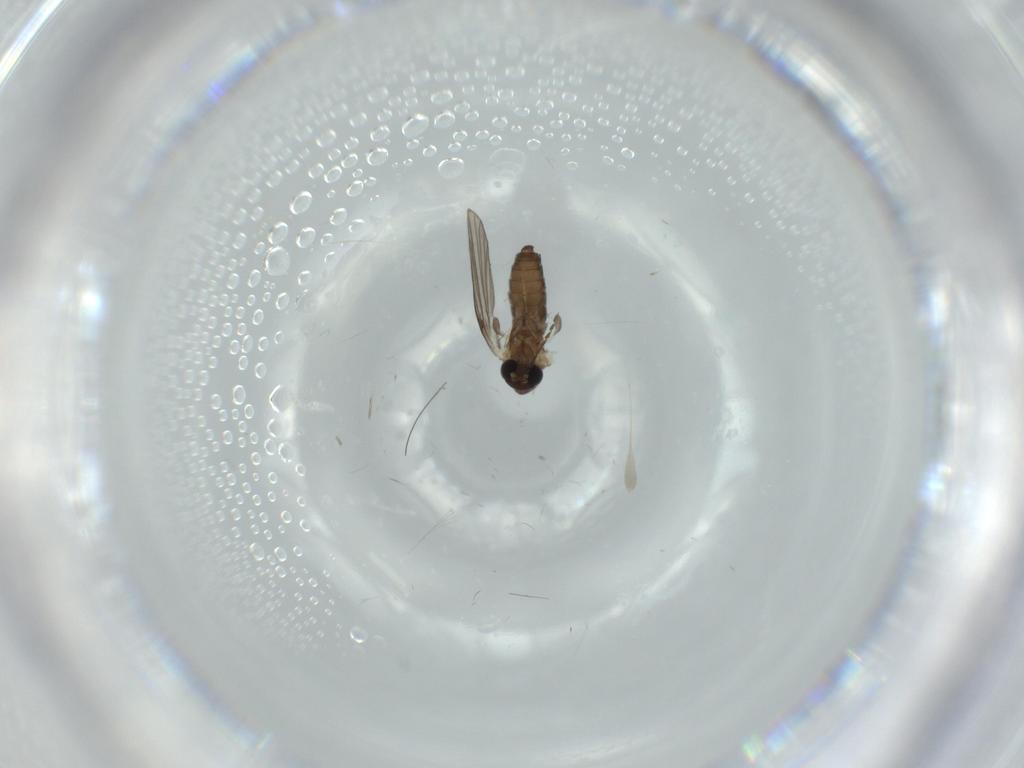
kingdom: Animalia
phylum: Arthropoda
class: Insecta
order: Diptera
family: Psychodidae
